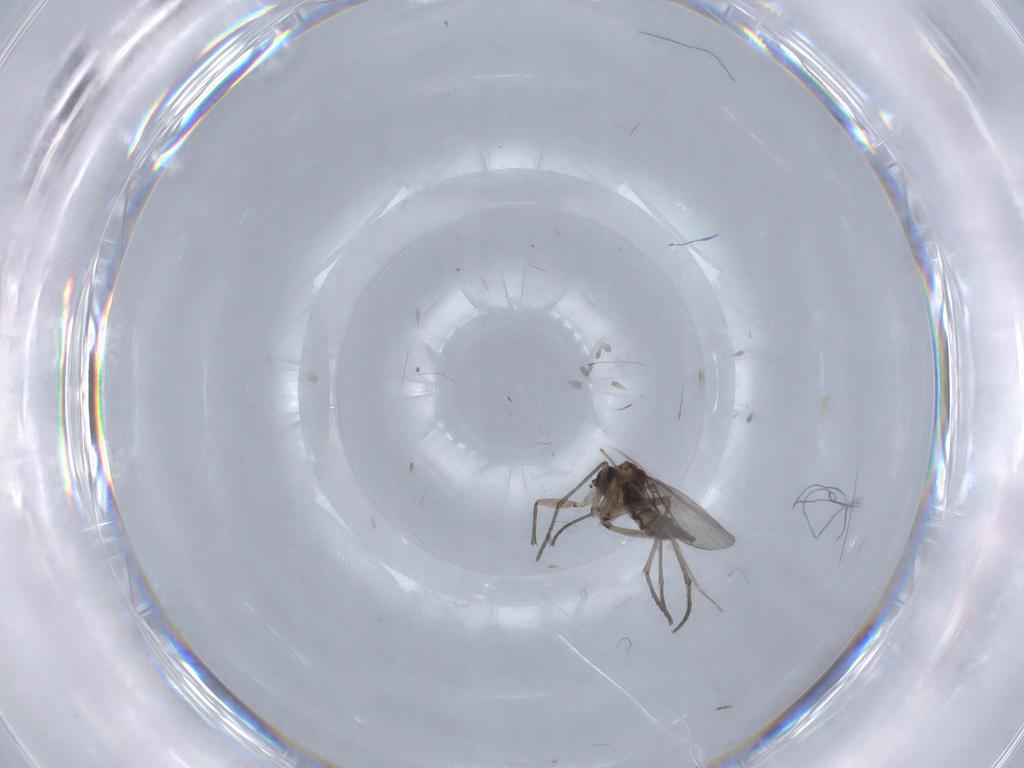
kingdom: Animalia
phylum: Arthropoda
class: Insecta
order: Diptera
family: Sciaridae
